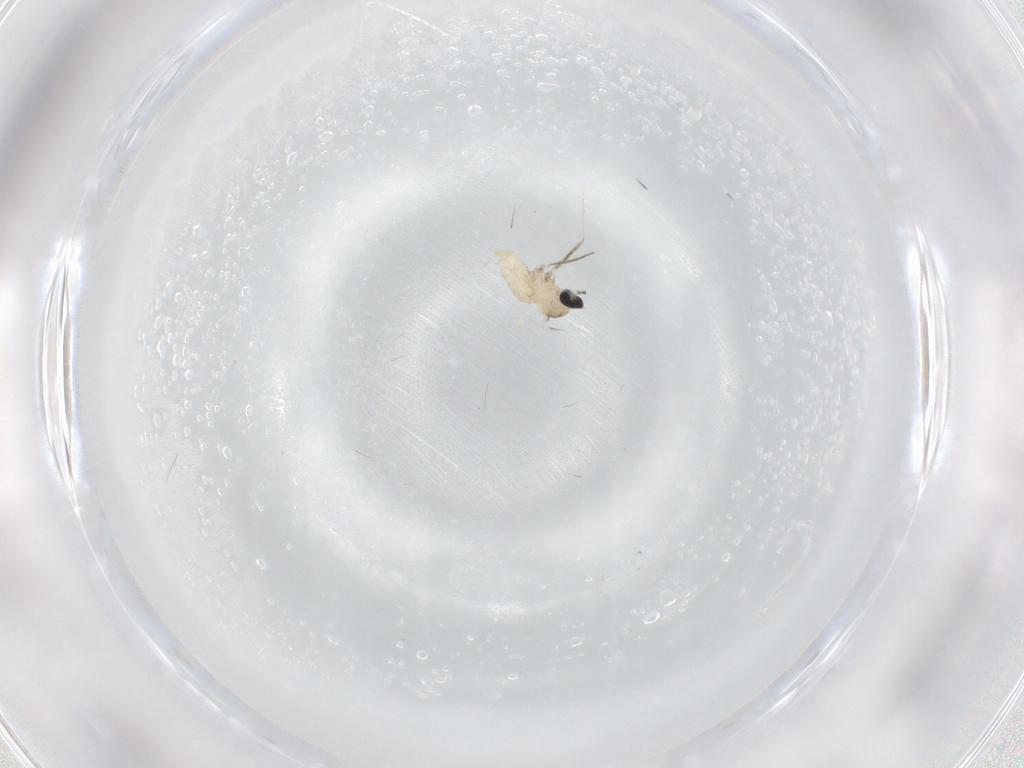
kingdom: Animalia
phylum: Arthropoda
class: Insecta
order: Diptera
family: Cecidomyiidae
